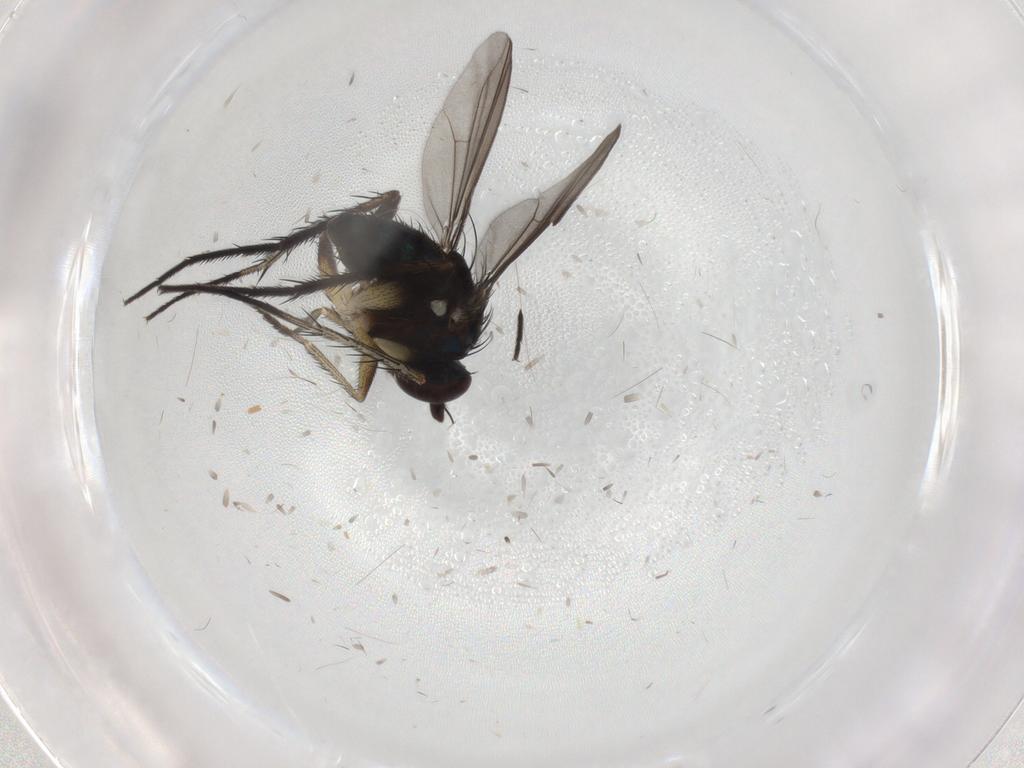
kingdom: Animalia
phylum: Arthropoda
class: Insecta
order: Diptera
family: Dolichopodidae
